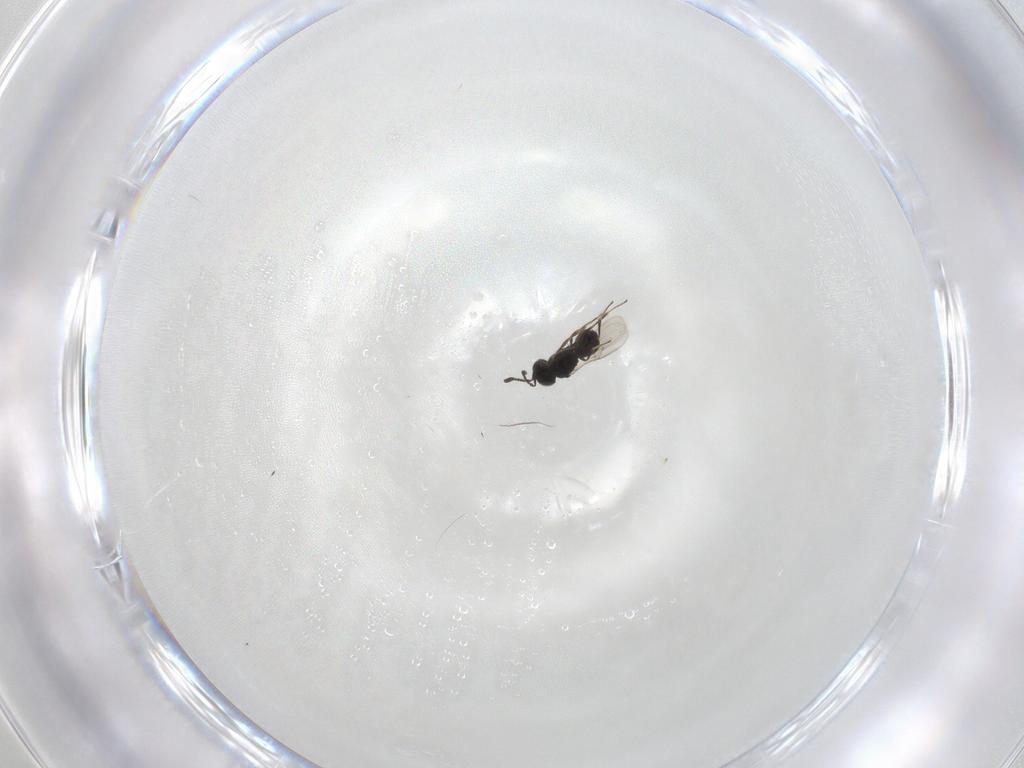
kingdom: Animalia
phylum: Arthropoda
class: Insecta
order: Hymenoptera
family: Scelionidae
